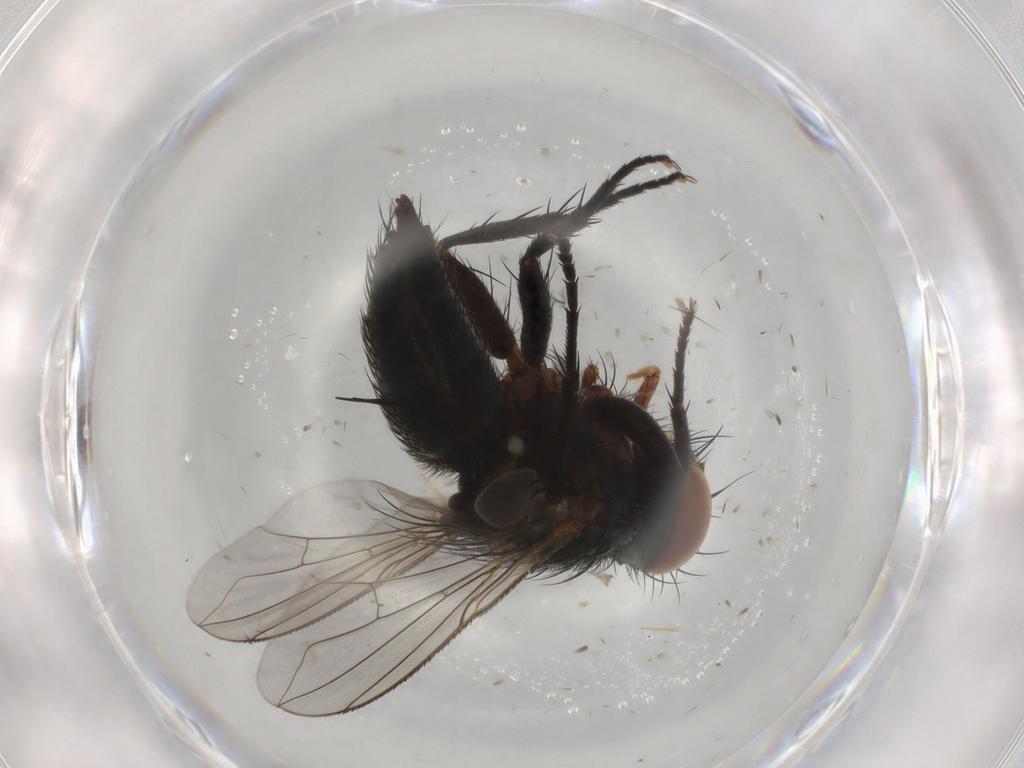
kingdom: Animalia
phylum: Arthropoda
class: Insecta
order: Diptera
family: Tachinidae
